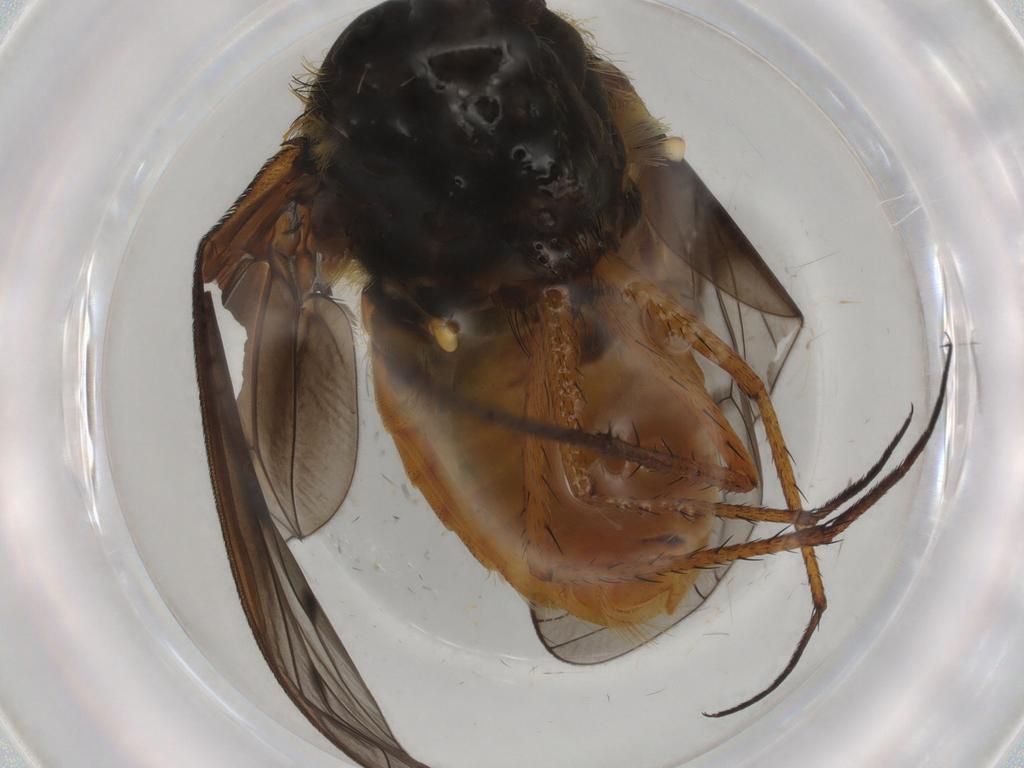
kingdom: Animalia
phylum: Arthropoda
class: Insecta
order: Diptera
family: Bombyliidae
